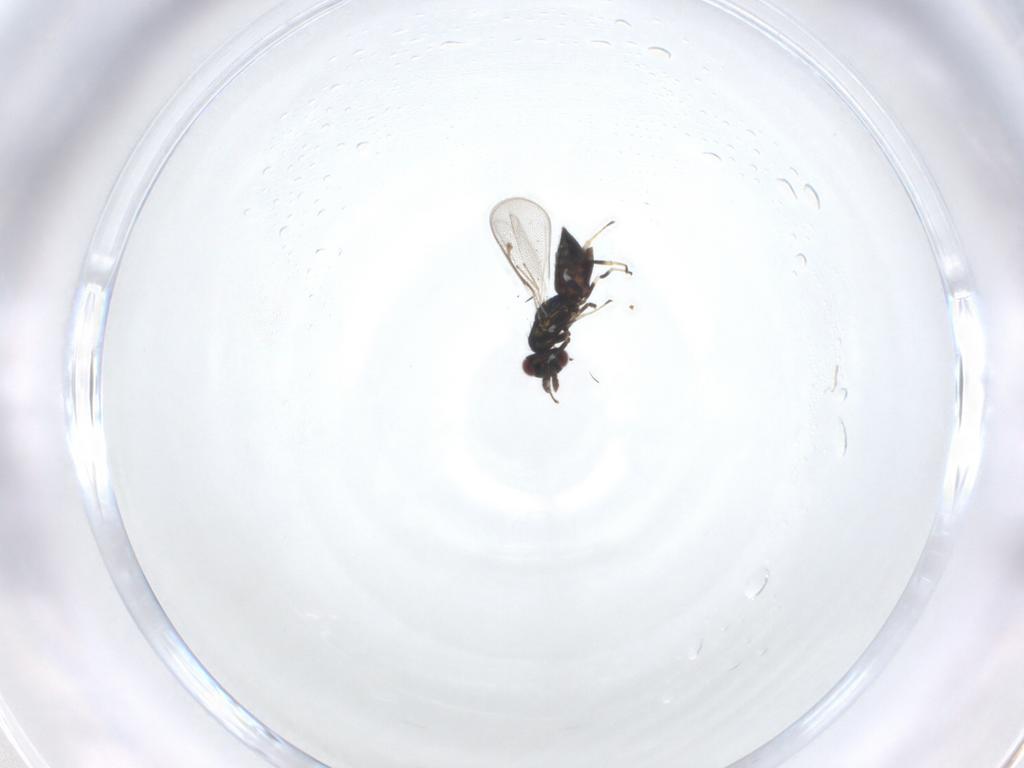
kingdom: Animalia
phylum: Arthropoda
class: Insecta
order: Hymenoptera
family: Eulophidae
